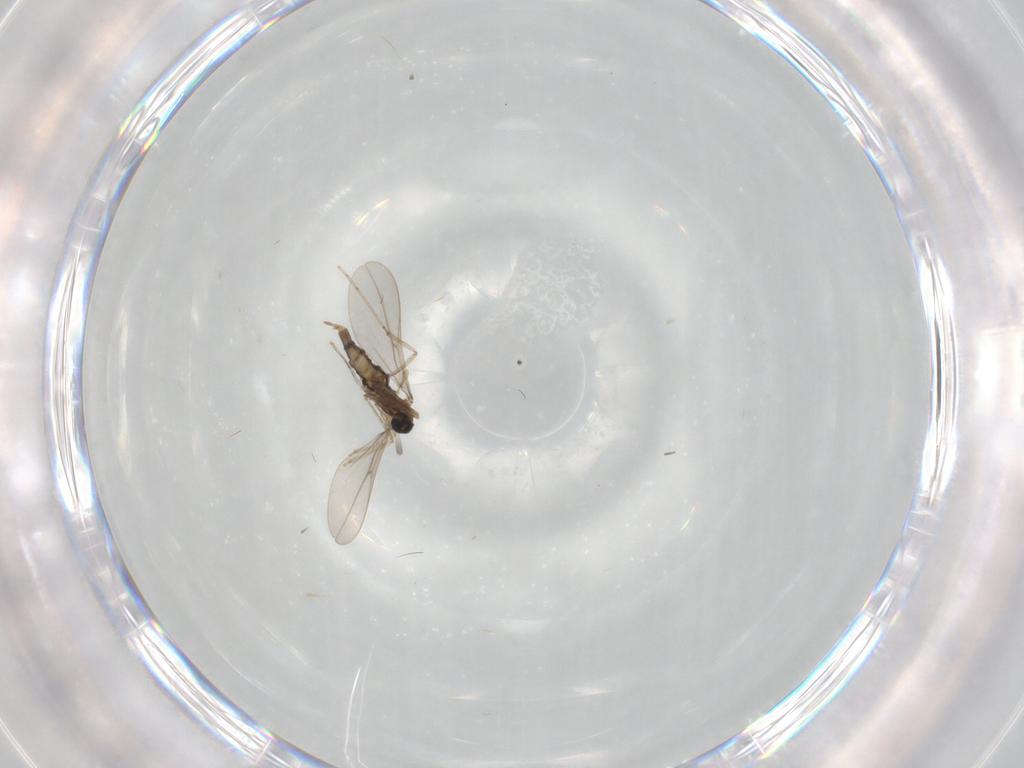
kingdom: Animalia
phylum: Arthropoda
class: Insecta
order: Diptera
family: Cecidomyiidae
